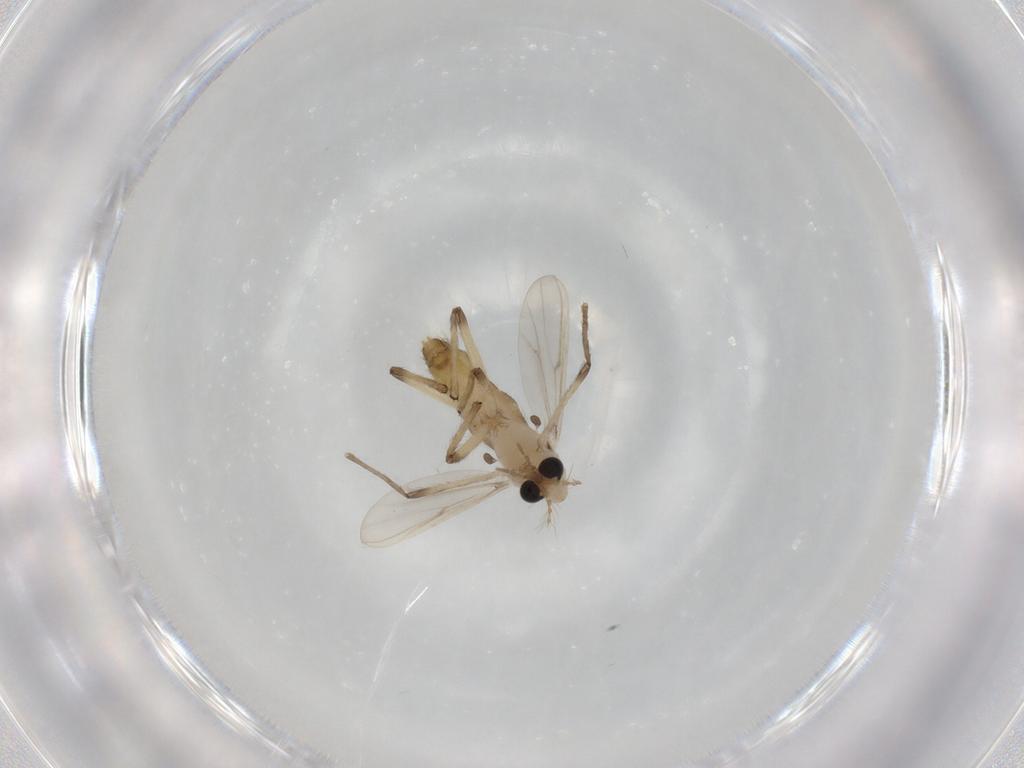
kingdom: Animalia
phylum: Arthropoda
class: Insecta
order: Diptera
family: Chironomidae
